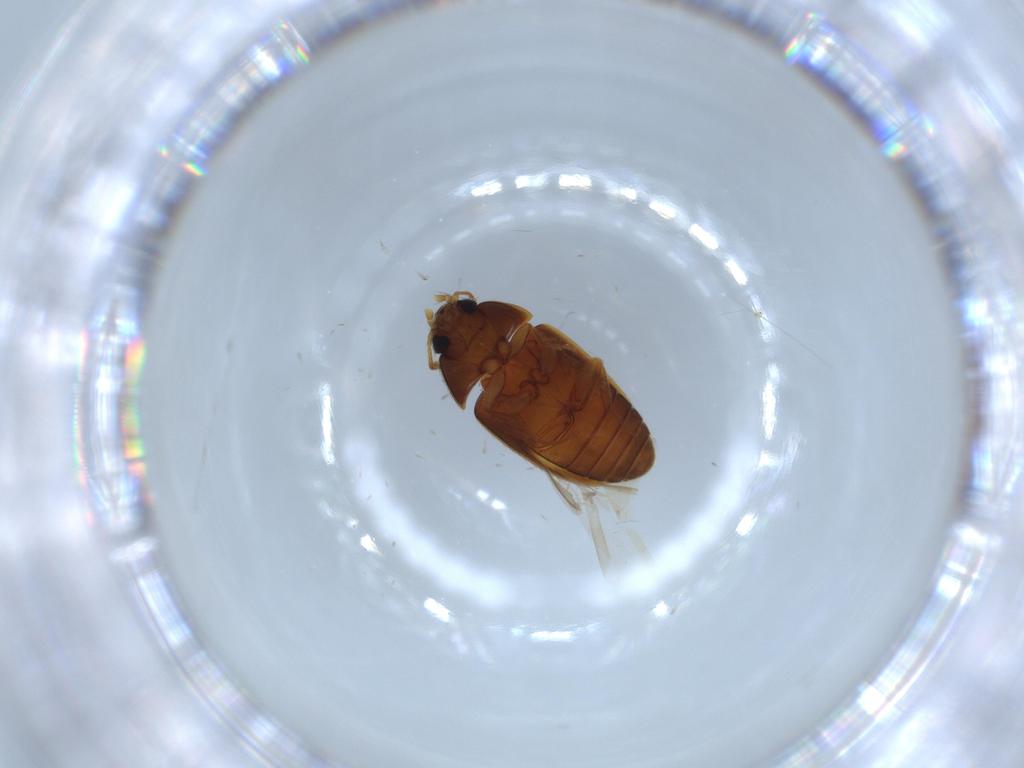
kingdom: Animalia
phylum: Arthropoda
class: Insecta
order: Coleoptera
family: Mycetophagidae
